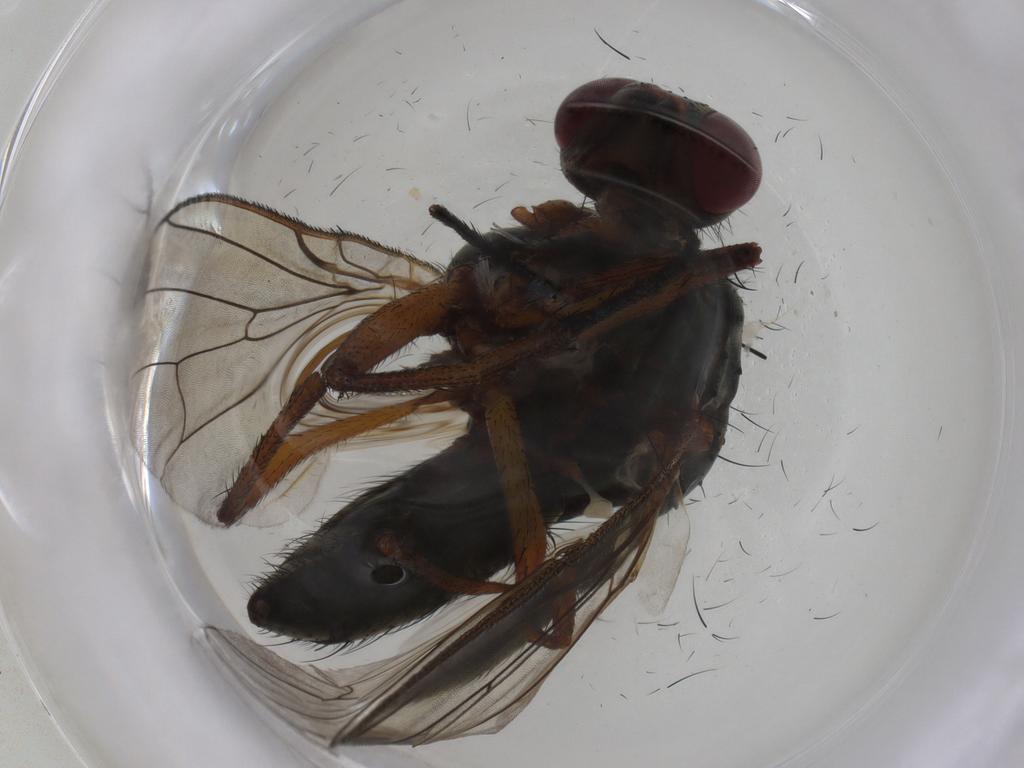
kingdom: Animalia
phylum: Arthropoda
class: Insecta
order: Diptera
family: Anthomyiidae
